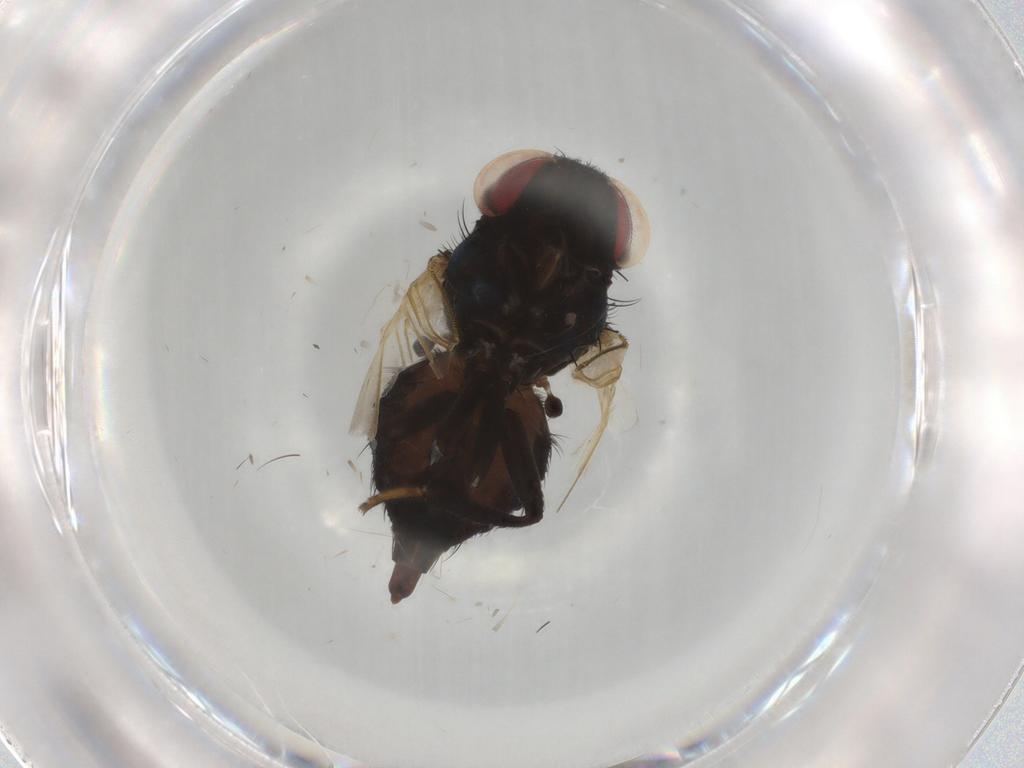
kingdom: Animalia
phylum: Arthropoda
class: Insecta
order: Diptera
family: Lonchaeidae
